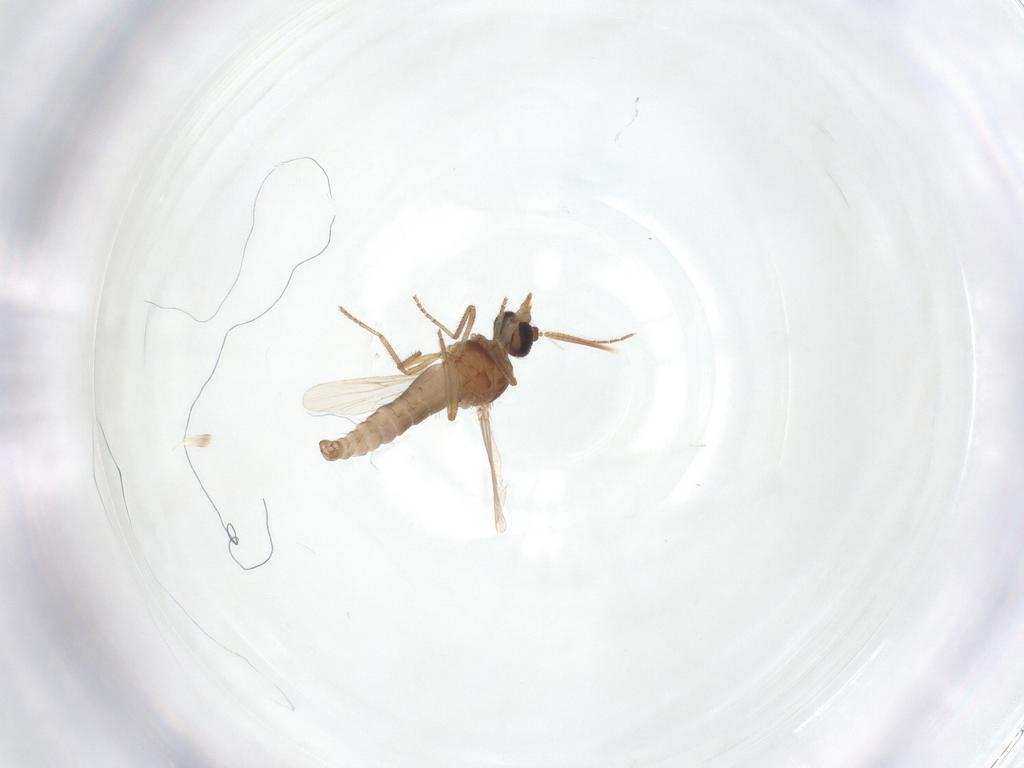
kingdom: Animalia
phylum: Arthropoda
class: Insecta
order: Diptera
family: Ceratopogonidae
